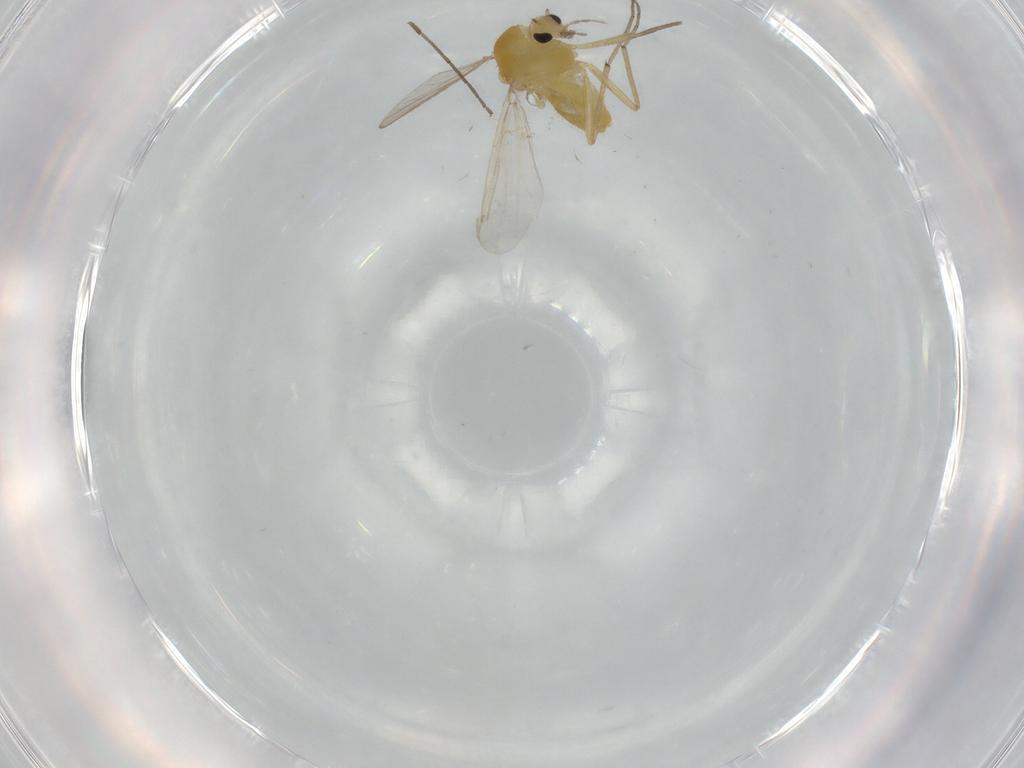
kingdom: Animalia
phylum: Arthropoda
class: Insecta
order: Diptera
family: Chironomidae
